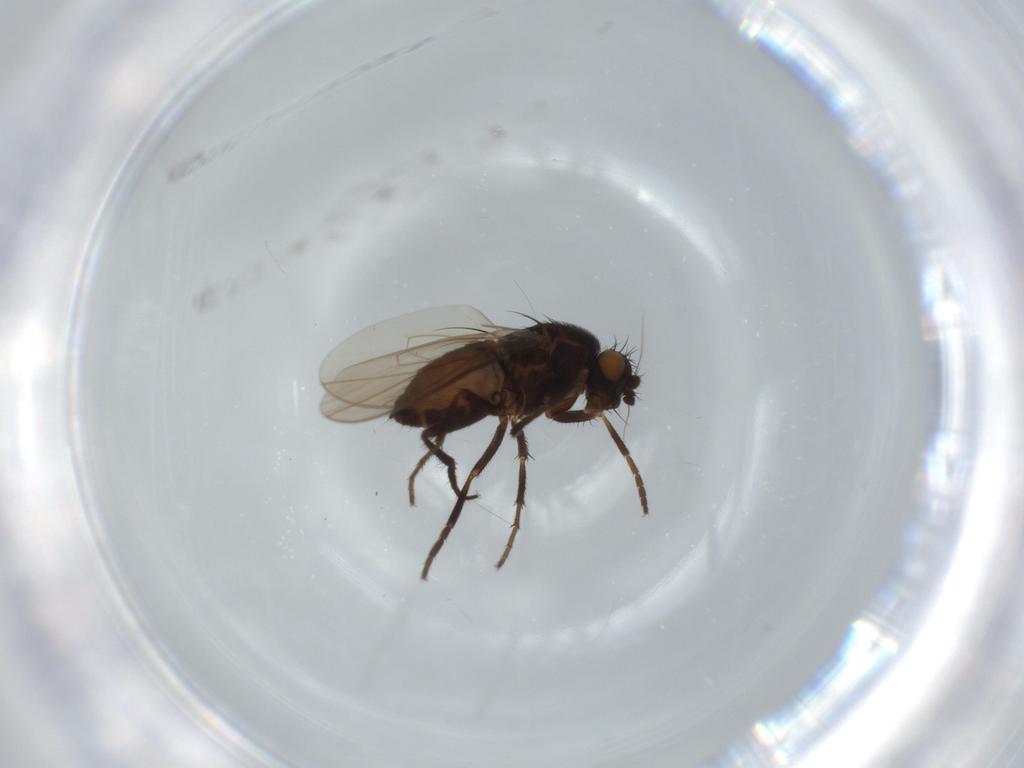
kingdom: Animalia
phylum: Arthropoda
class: Insecta
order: Diptera
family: Sphaeroceridae
